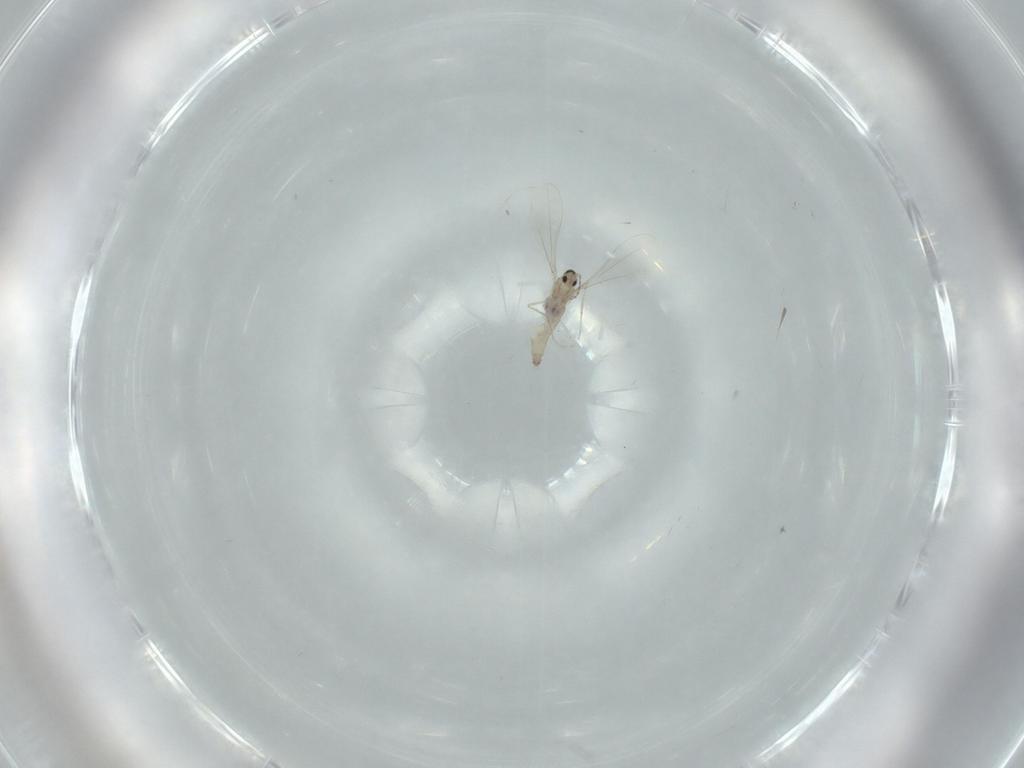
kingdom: Animalia
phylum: Arthropoda
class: Insecta
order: Diptera
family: Cecidomyiidae
